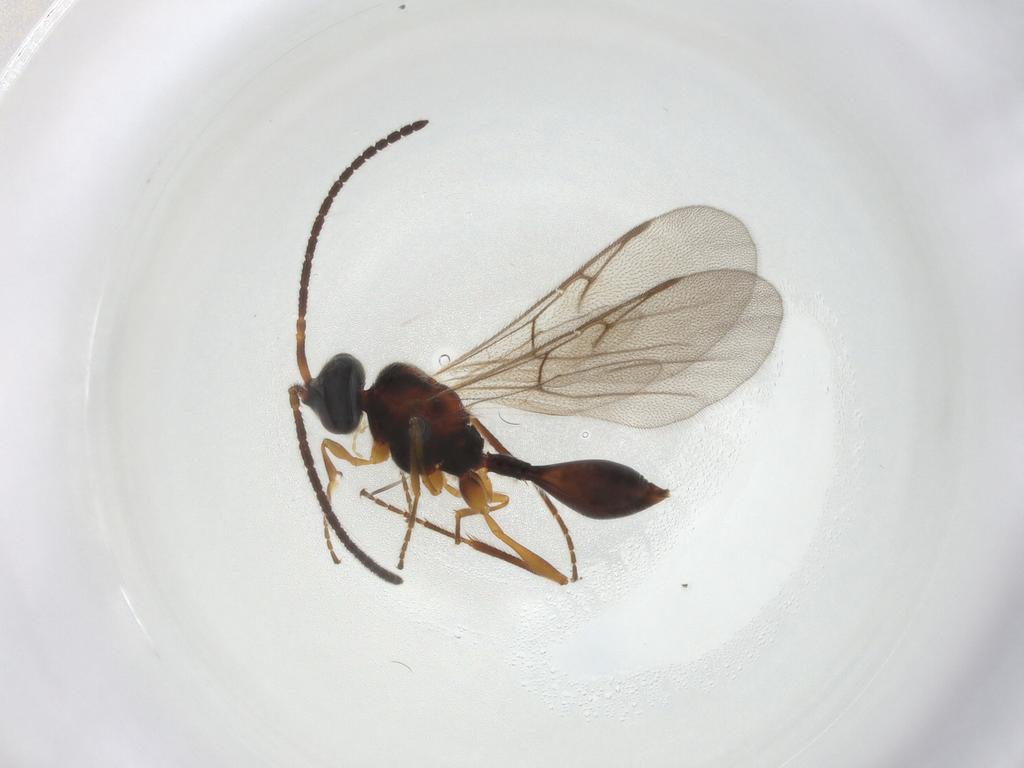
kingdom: Animalia
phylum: Arthropoda
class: Insecta
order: Hymenoptera
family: Diapriidae
